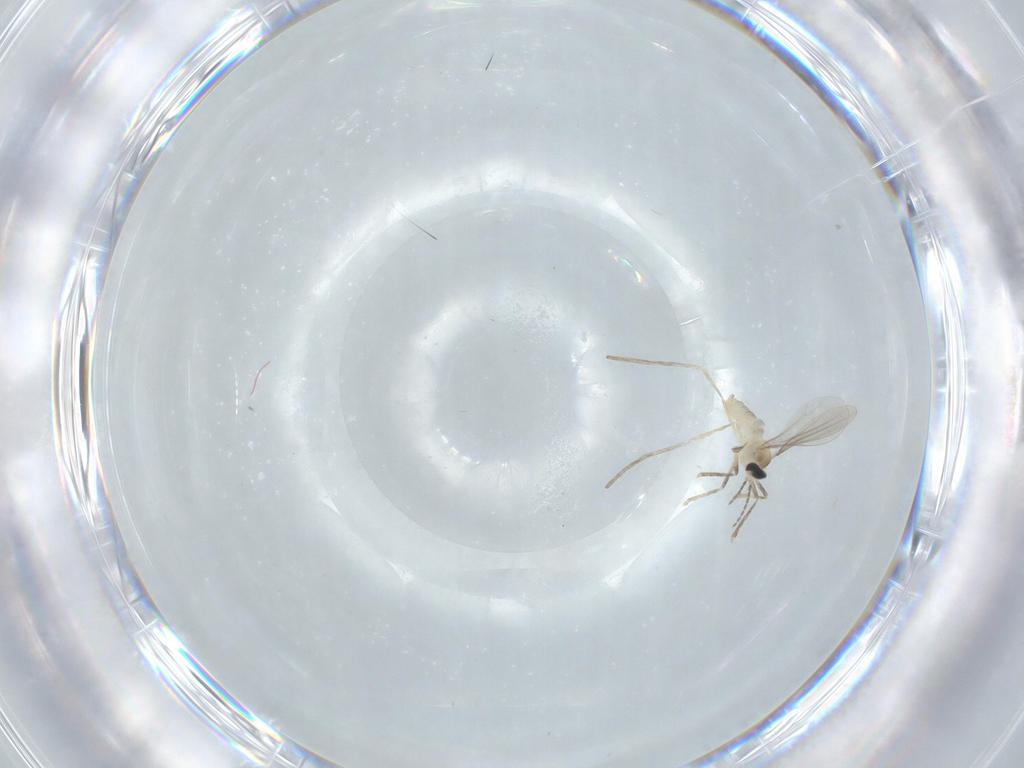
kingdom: Animalia
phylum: Arthropoda
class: Insecta
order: Diptera
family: Cecidomyiidae
